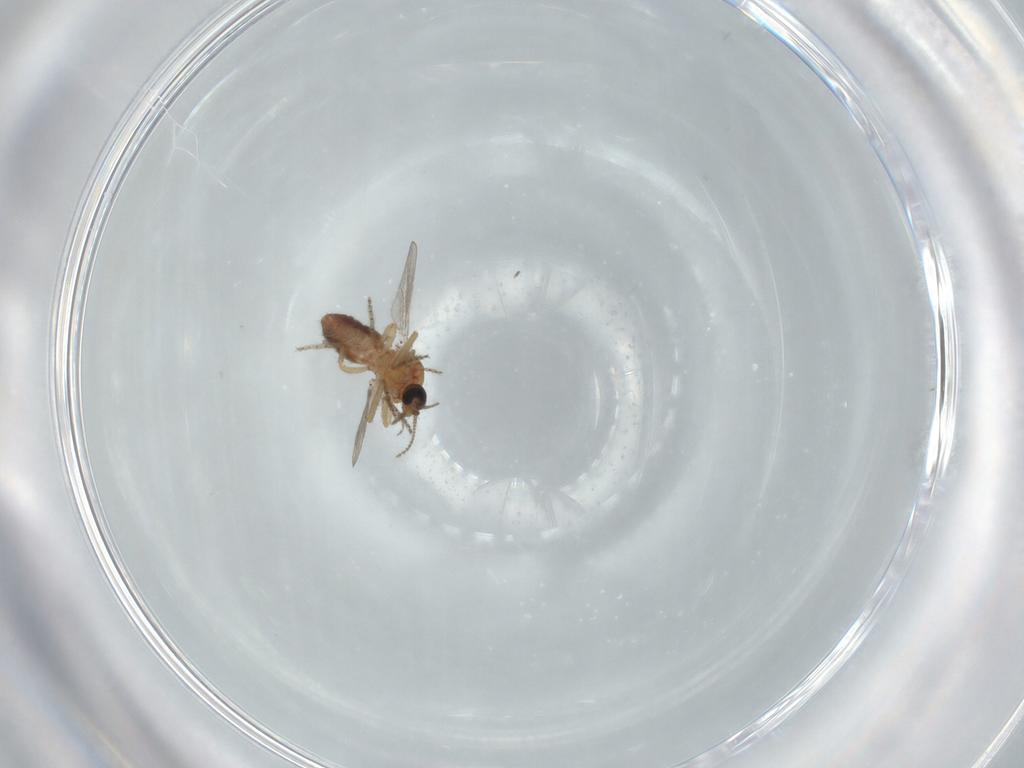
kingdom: Animalia
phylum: Arthropoda
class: Insecta
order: Diptera
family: Ceratopogonidae
